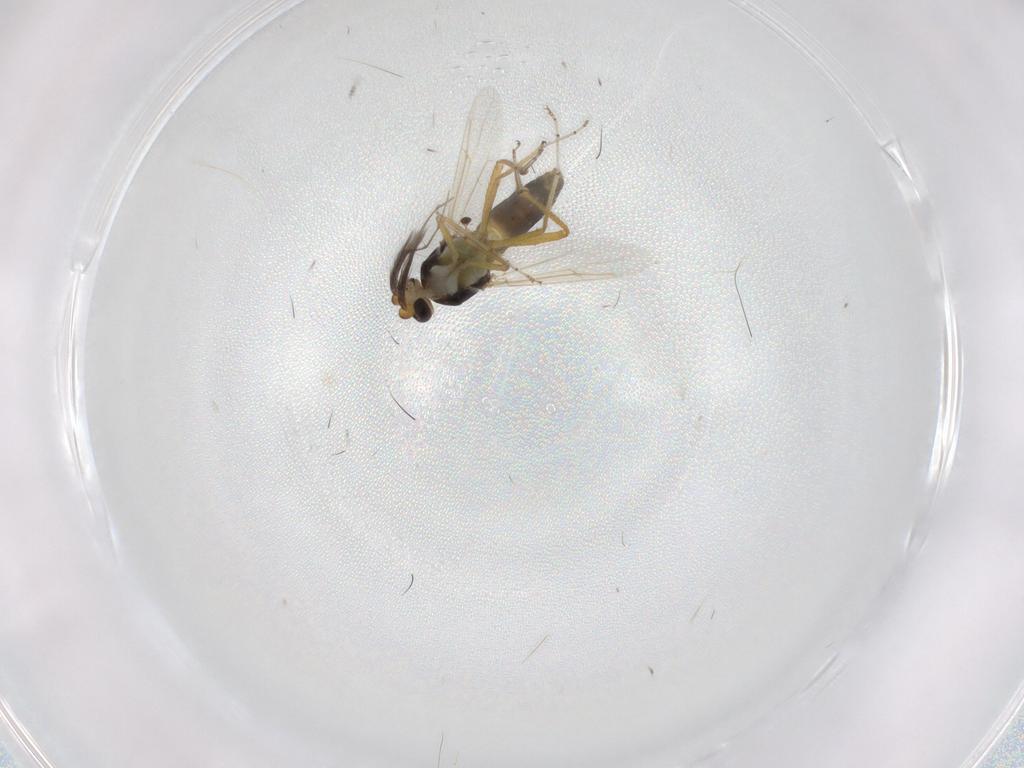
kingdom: Animalia
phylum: Arthropoda
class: Insecta
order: Diptera
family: Ceratopogonidae
